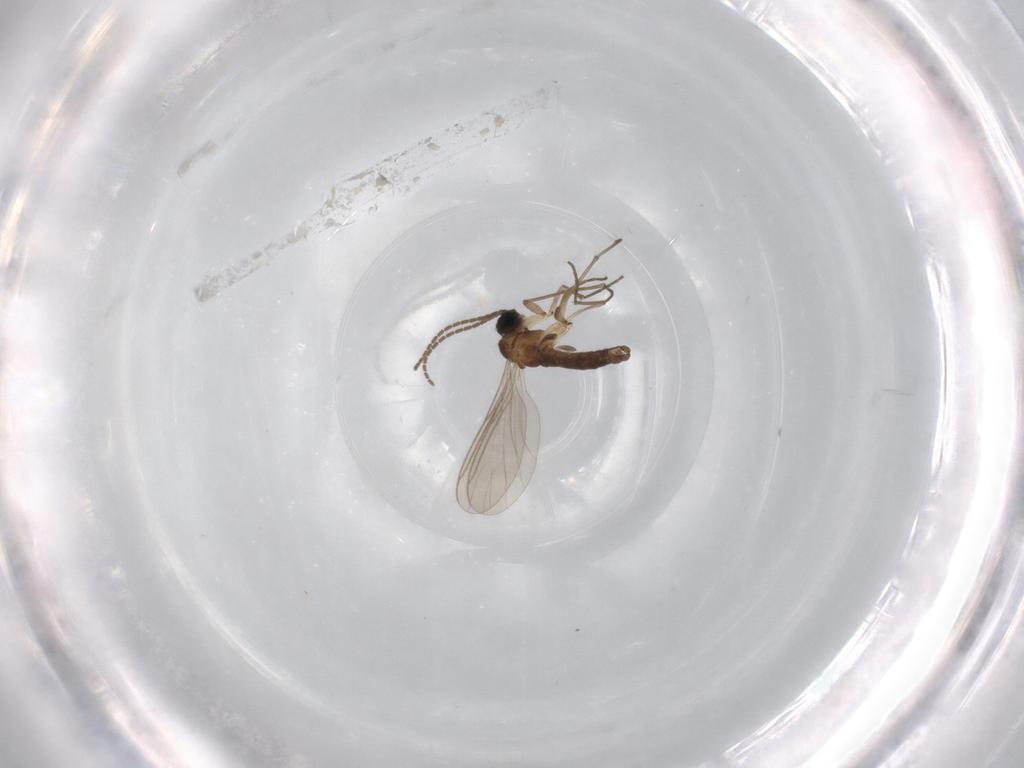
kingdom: Animalia
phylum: Arthropoda
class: Insecta
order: Diptera
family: Sciaridae
